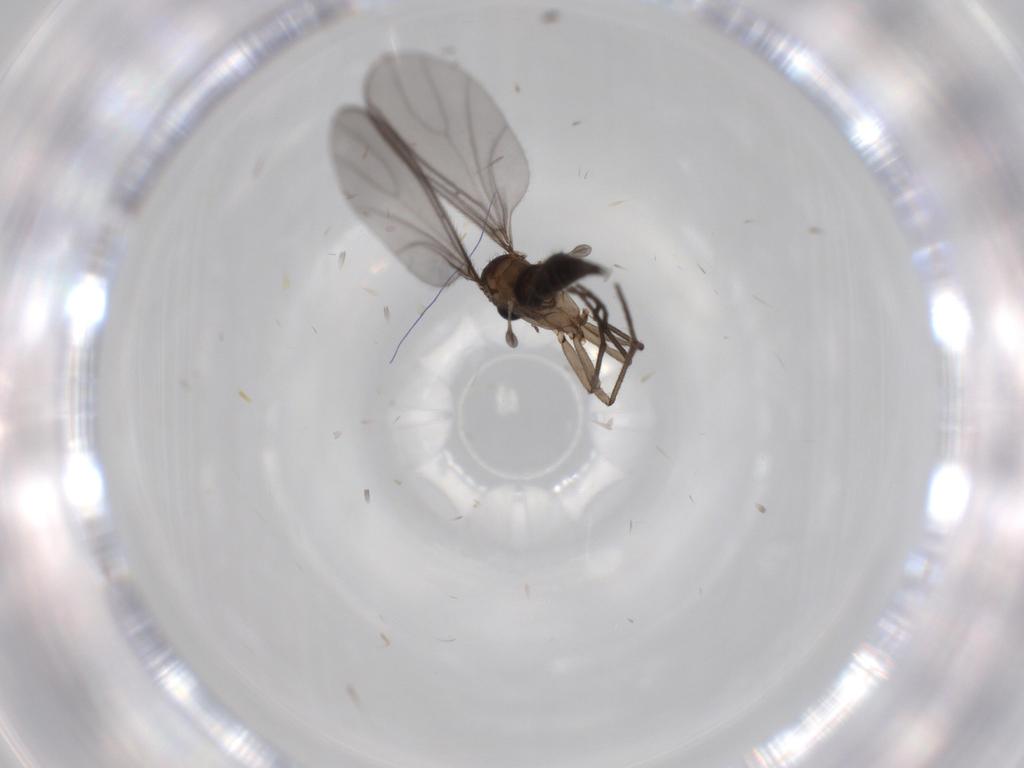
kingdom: Animalia
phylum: Arthropoda
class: Insecta
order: Diptera
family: Sciaridae
